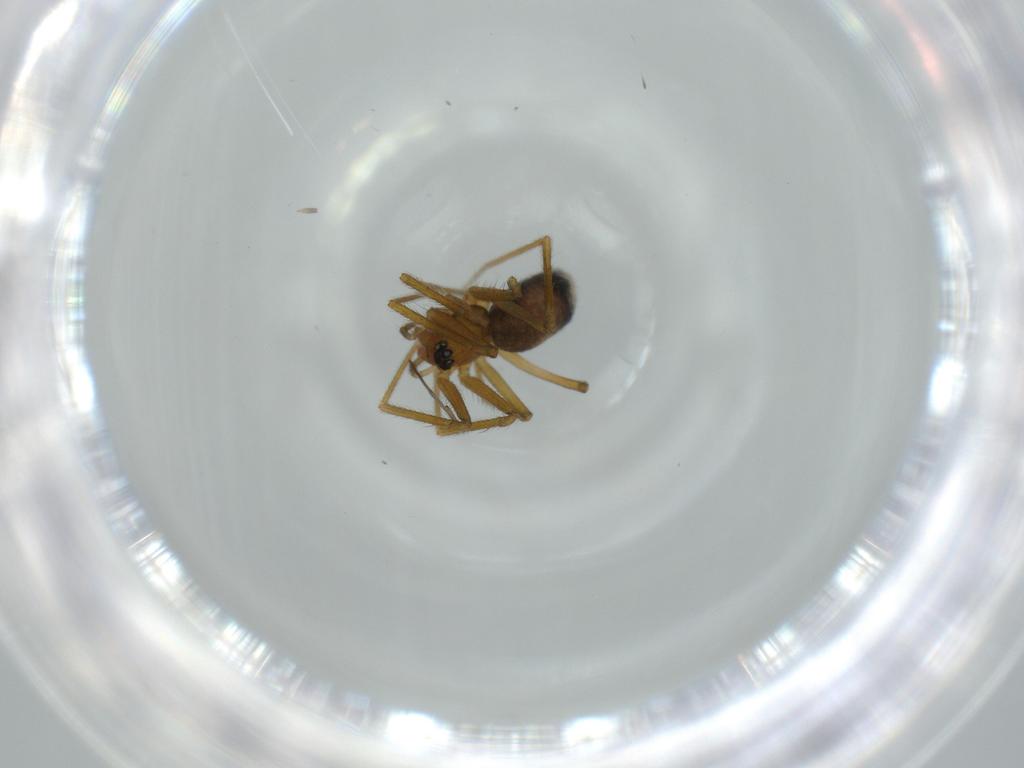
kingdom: Animalia
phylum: Arthropoda
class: Arachnida
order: Araneae
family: Linyphiidae
